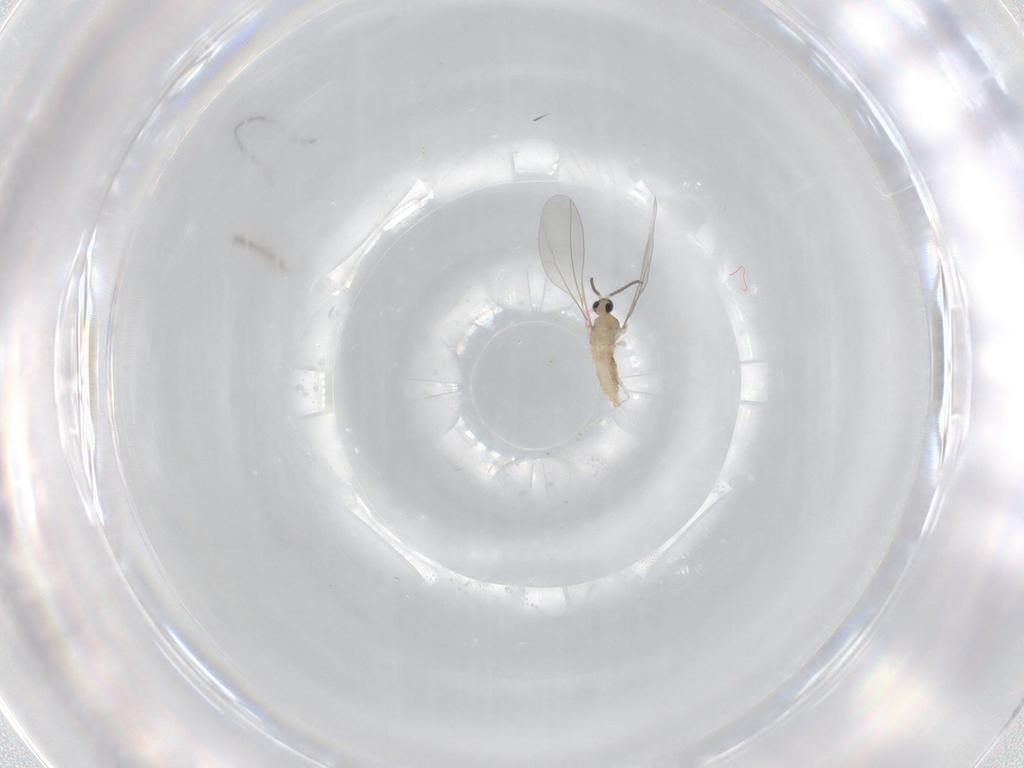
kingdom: Animalia
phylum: Arthropoda
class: Insecta
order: Diptera
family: Cecidomyiidae
